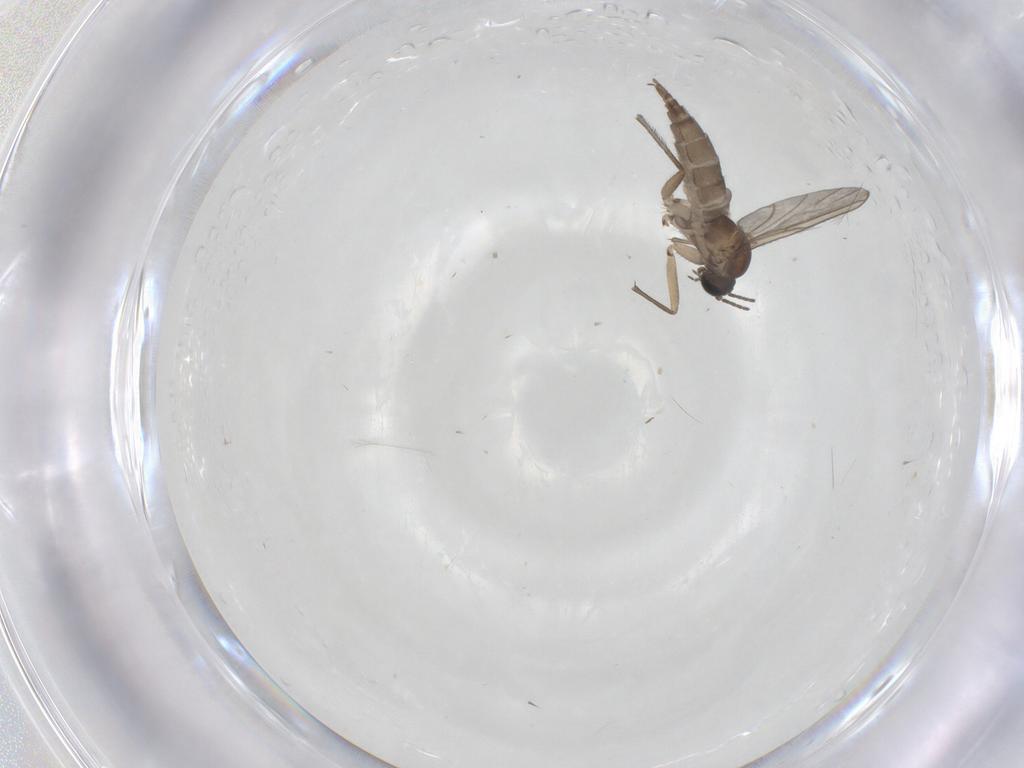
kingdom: Animalia
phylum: Arthropoda
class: Insecta
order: Diptera
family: Sciaridae
